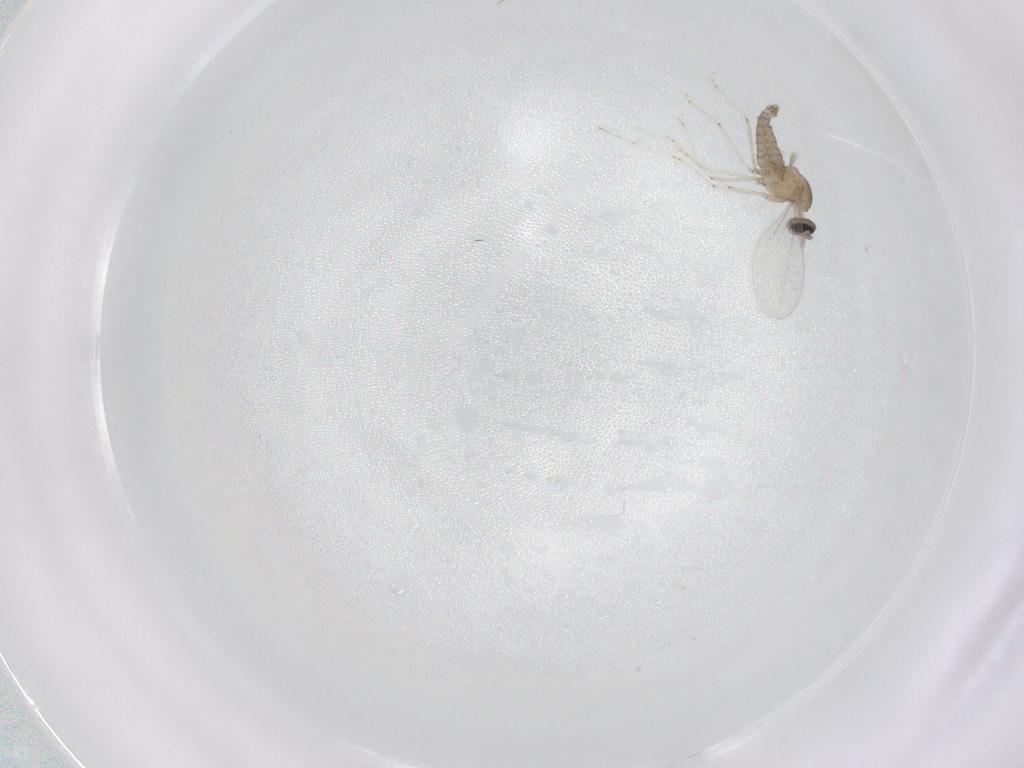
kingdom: Animalia
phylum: Arthropoda
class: Insecta
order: Diptera
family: Cecidomyiidae
